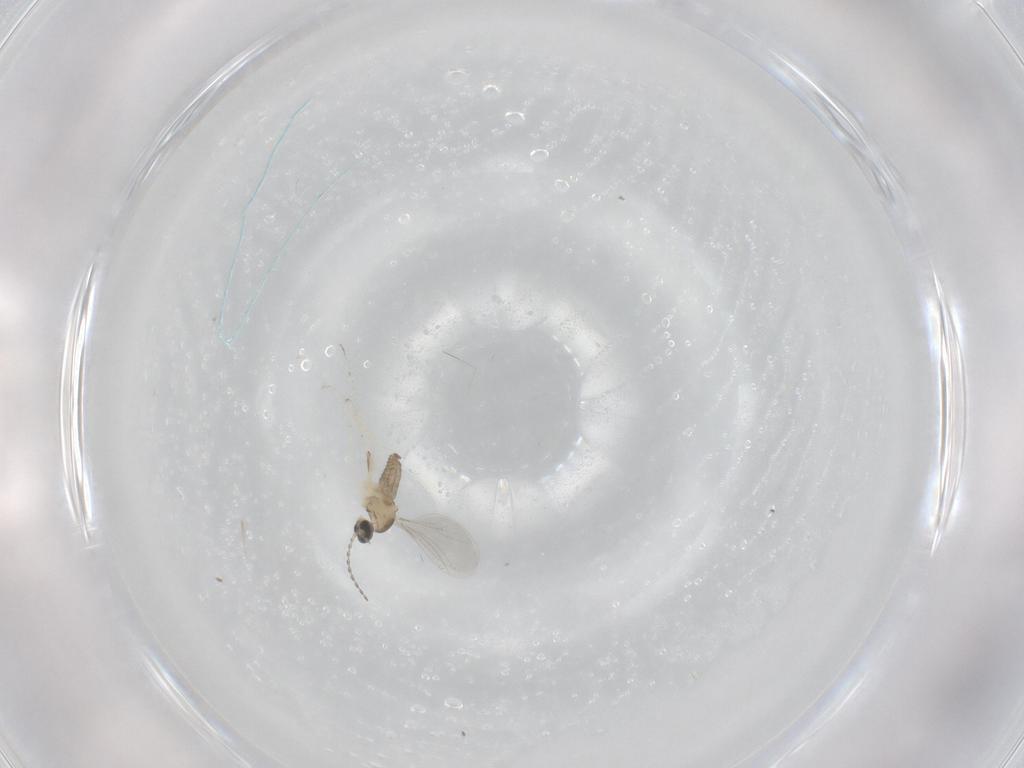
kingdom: Animalia
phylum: Arthropoda
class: Insecta
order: Diptera
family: Cecidomyiidae
